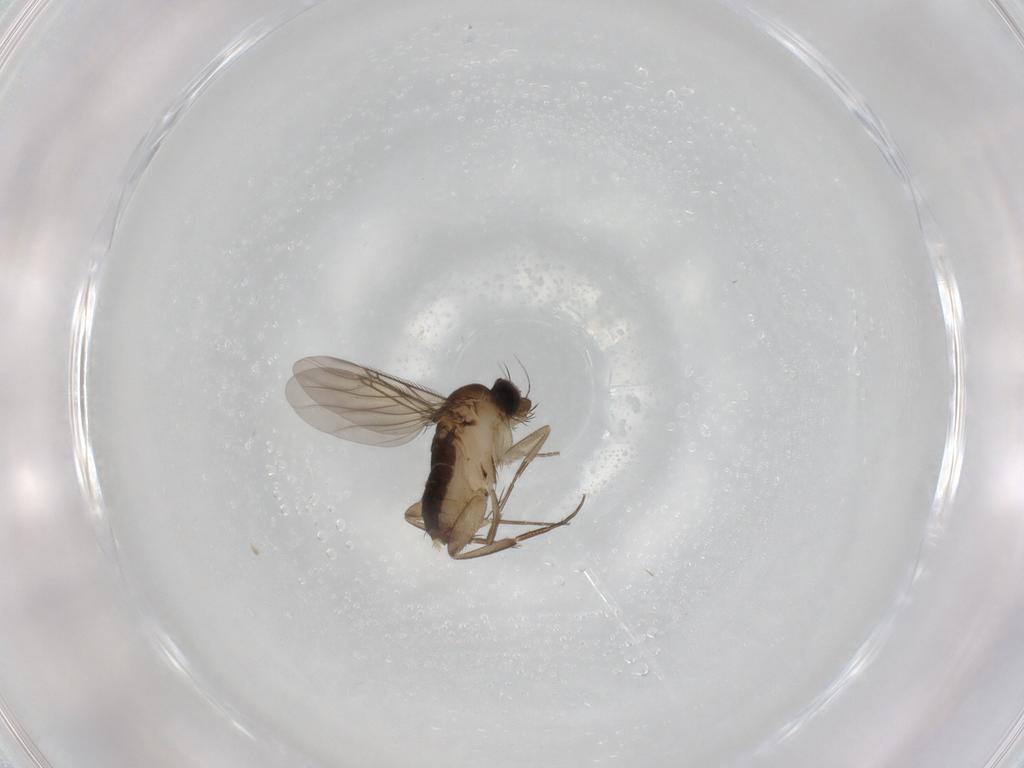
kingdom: Animalia
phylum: Arthropoda
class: Insecta
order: Diptera
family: Phoridae
